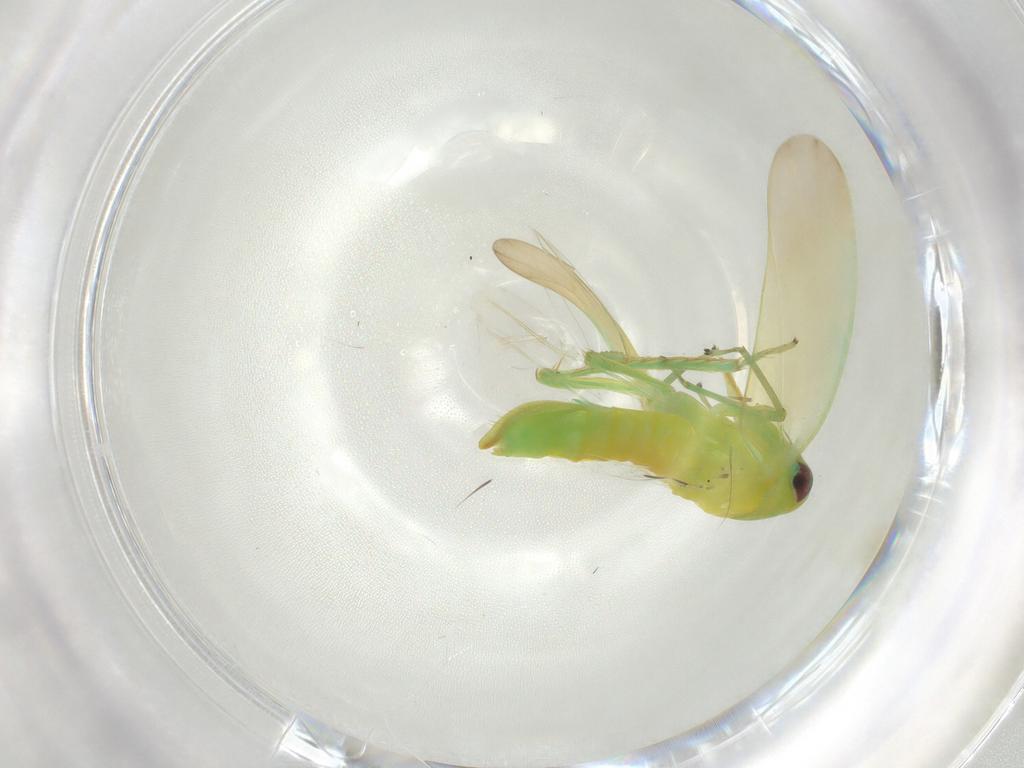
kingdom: Animalia
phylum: Arthropoda
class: Insecta
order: Hemiptera
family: Cicadellidae
